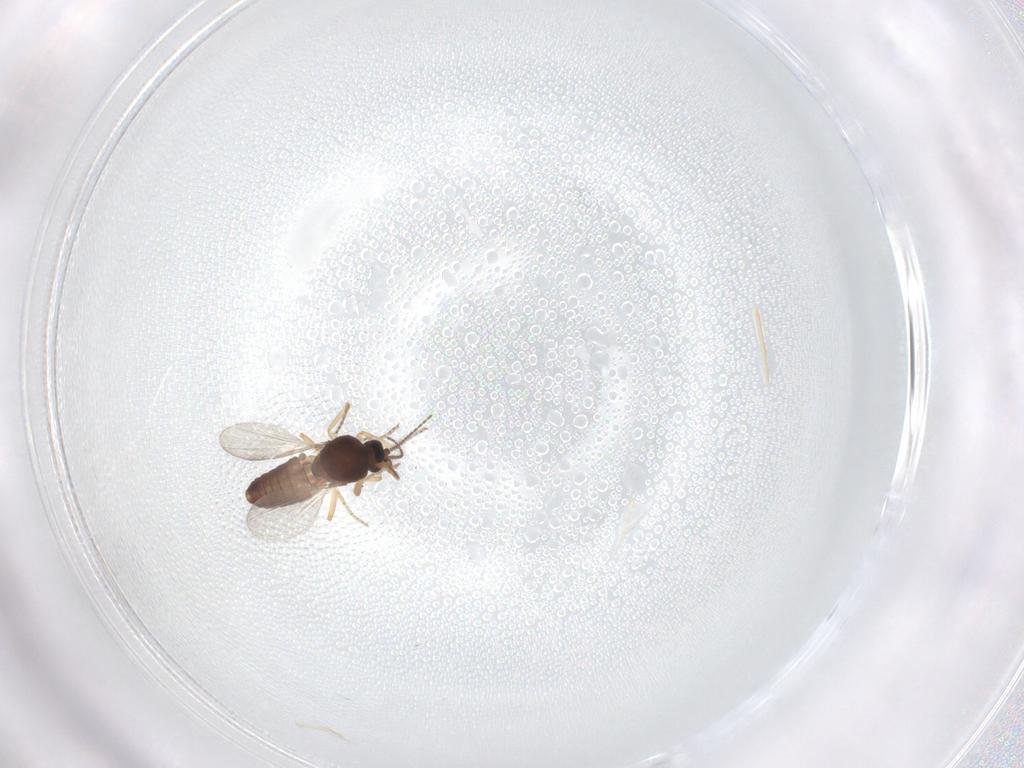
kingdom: Animalia
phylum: Arthropoda
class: Insecta
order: Diptera
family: Ceratopogonidae
